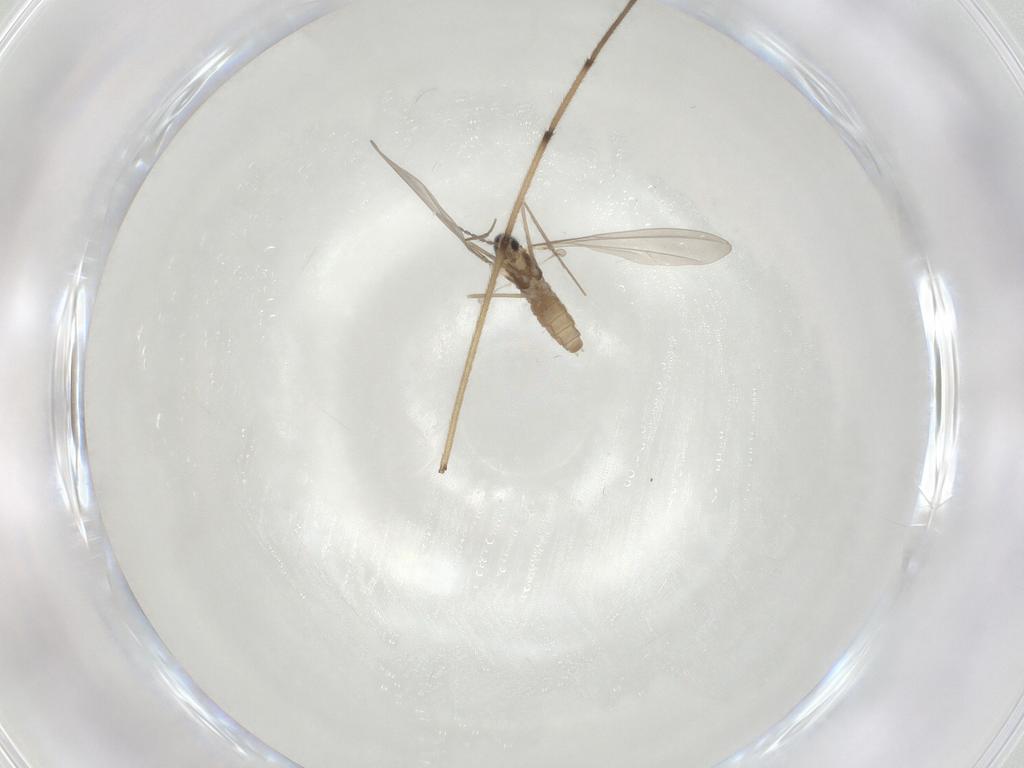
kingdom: Animalia
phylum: Arthropoda
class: Insecta
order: Diptera
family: Chironomidae
